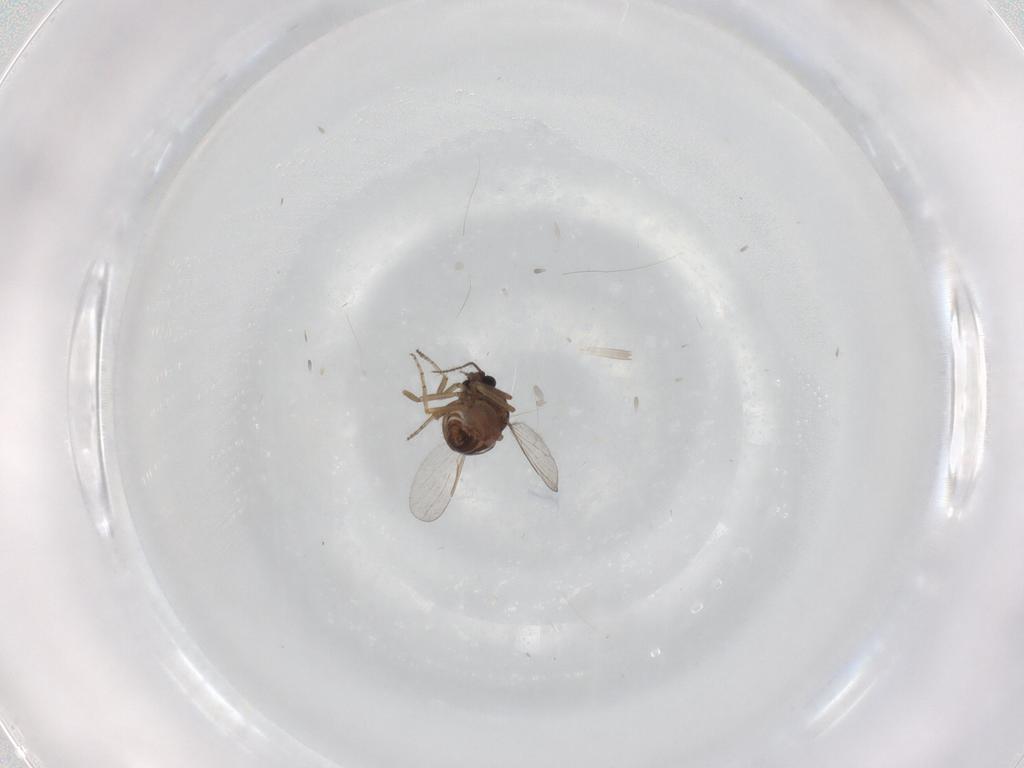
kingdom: Animalia
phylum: Arthropoda
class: Insecta
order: Diptera
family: Ceratopogonidae
